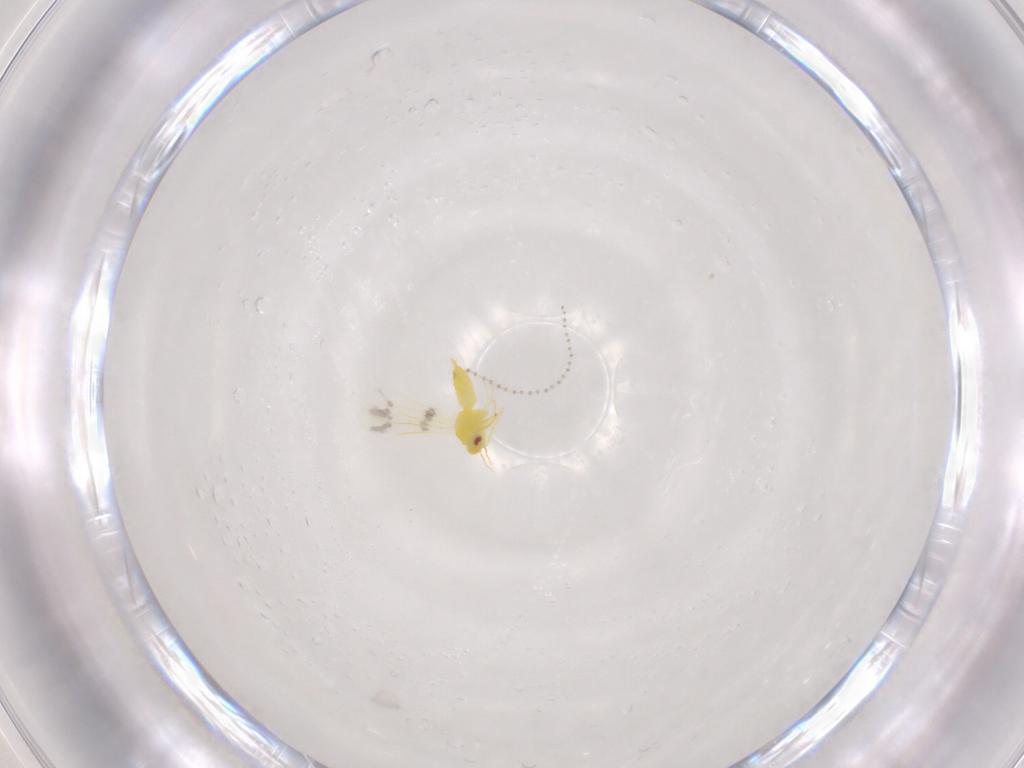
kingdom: Animalia
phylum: Arthropoda
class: Insecta
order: Hemiptera
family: Aleyrodidae
